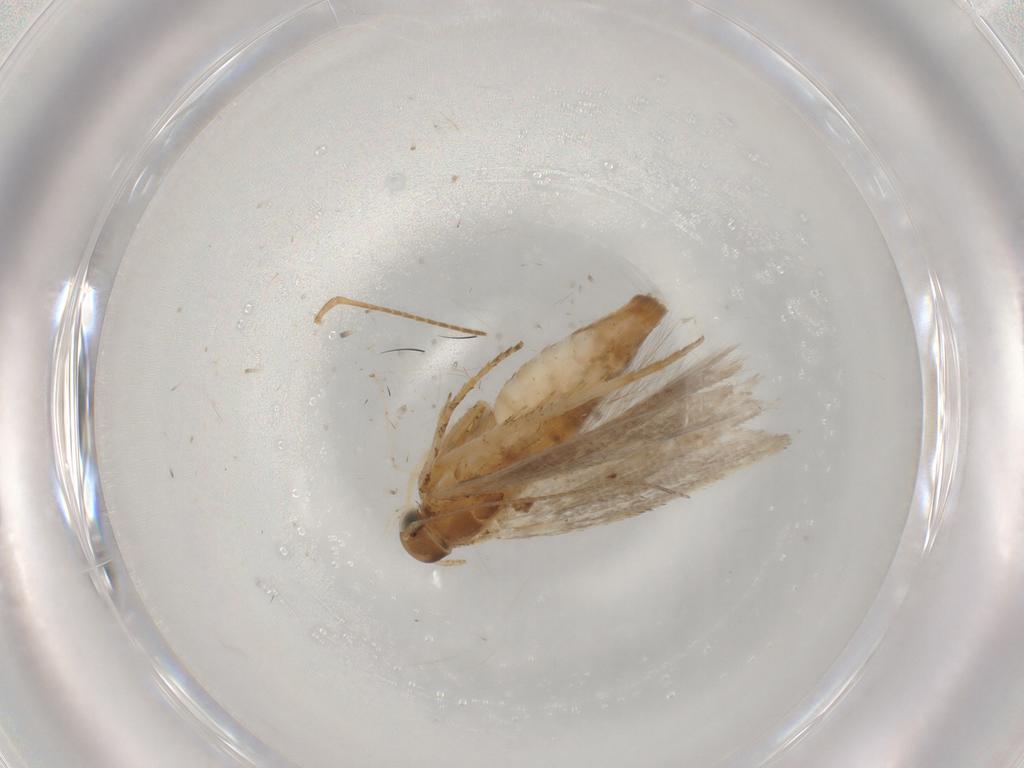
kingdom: Animalia
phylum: Arthropoda
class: Insecta
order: Lepidoptera
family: Gelechiidae
